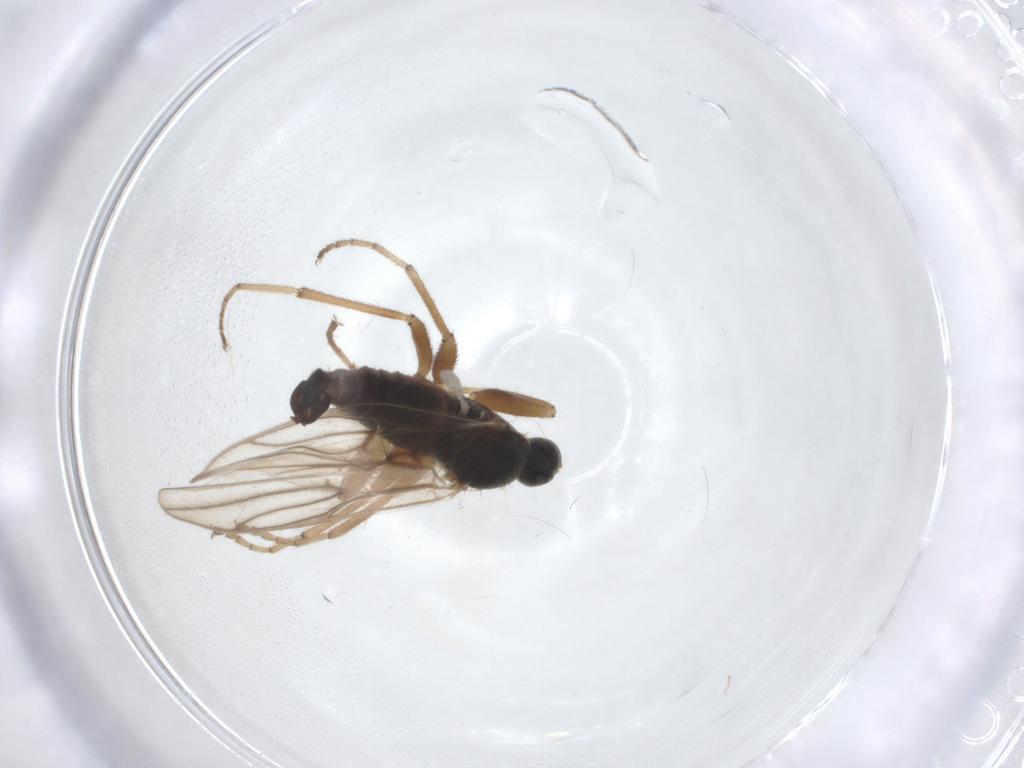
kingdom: Animalia
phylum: Arthropoda
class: Insecta
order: Diptera
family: Hybotidae
